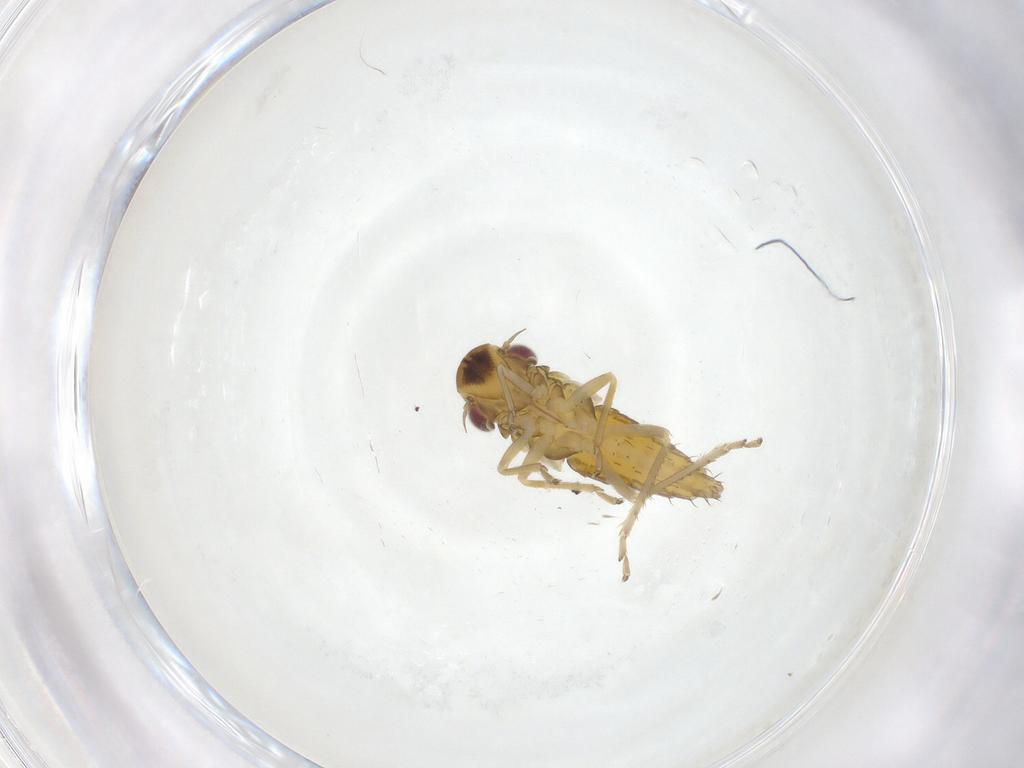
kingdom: Animalia
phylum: Arthropoda
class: Insecta
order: Hemiptera
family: Cicadellidae
